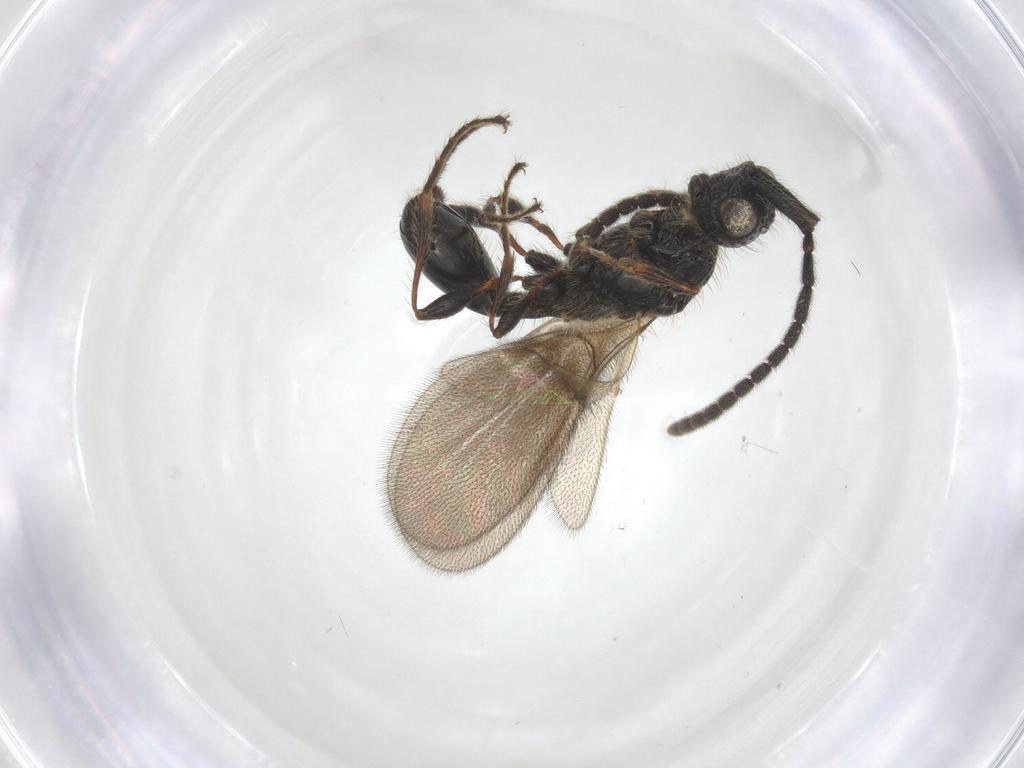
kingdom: Animalia
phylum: Arthropoda
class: Insecta
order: Hymenoptera
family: Diapriidae
